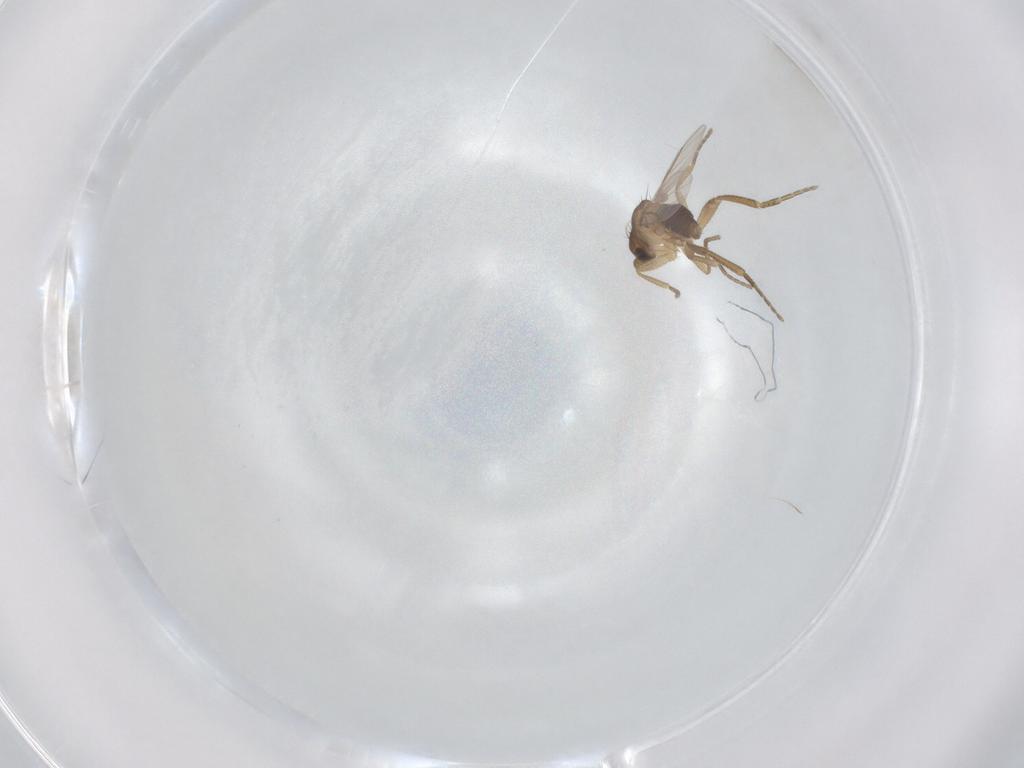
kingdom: Animalia
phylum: Arthropoda
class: Insecta
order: Diptera
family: Phoridae
